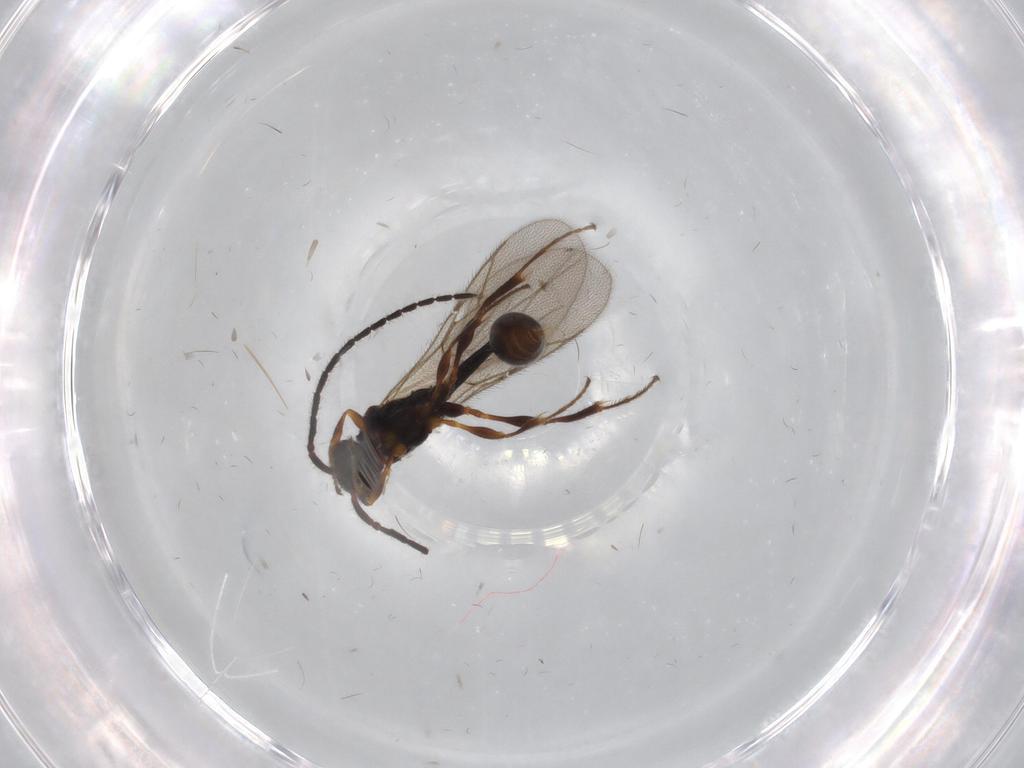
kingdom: Animalia
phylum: Arthropoda
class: Insecta
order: Hymenoptera
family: Diapriidae
